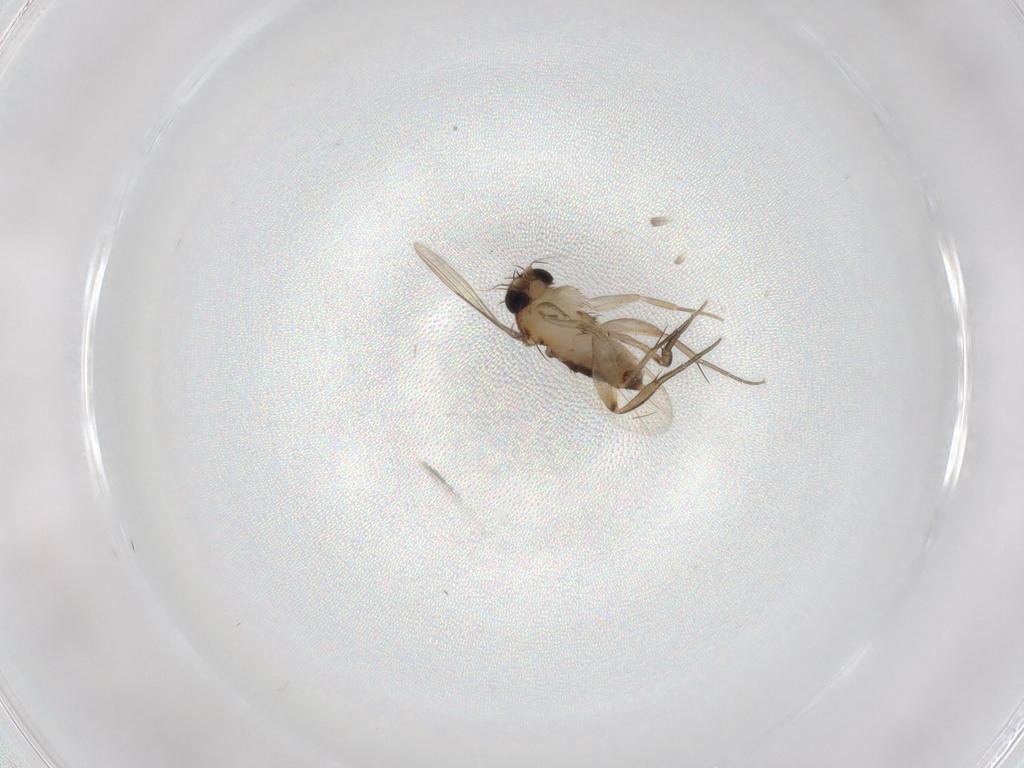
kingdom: Animalia
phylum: Arthropoda
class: Insecta
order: Diptera
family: Phoridae
